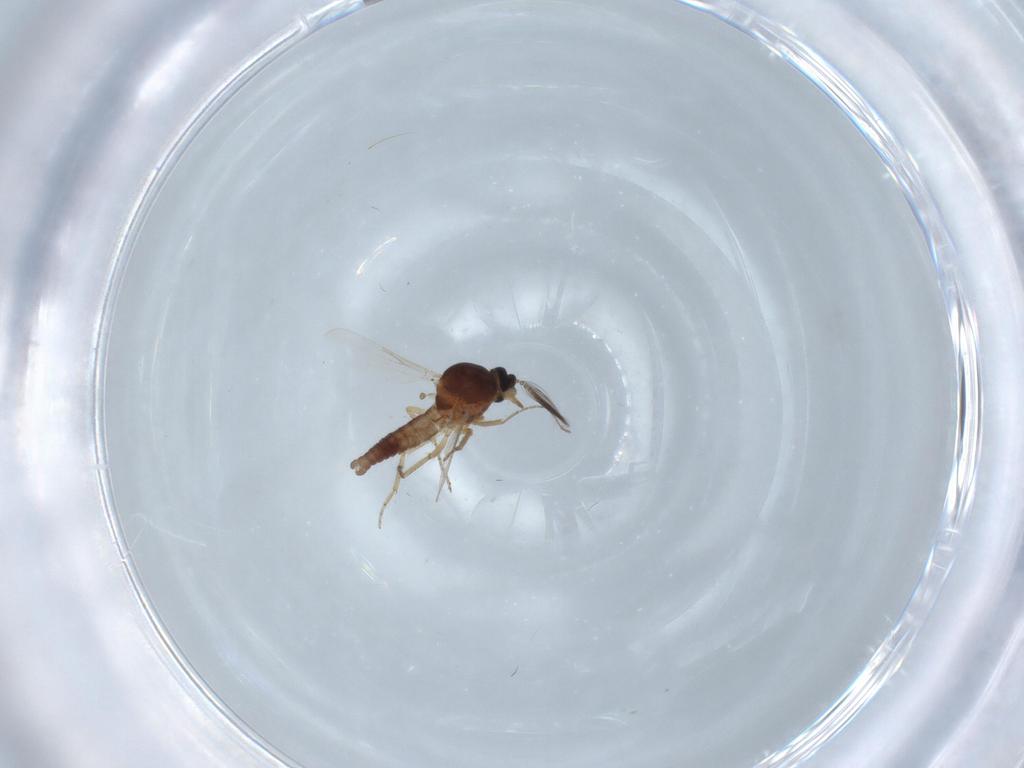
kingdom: Animalia
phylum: Arthropoda
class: Insecta
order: Diptera
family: Ceratopogonidae
